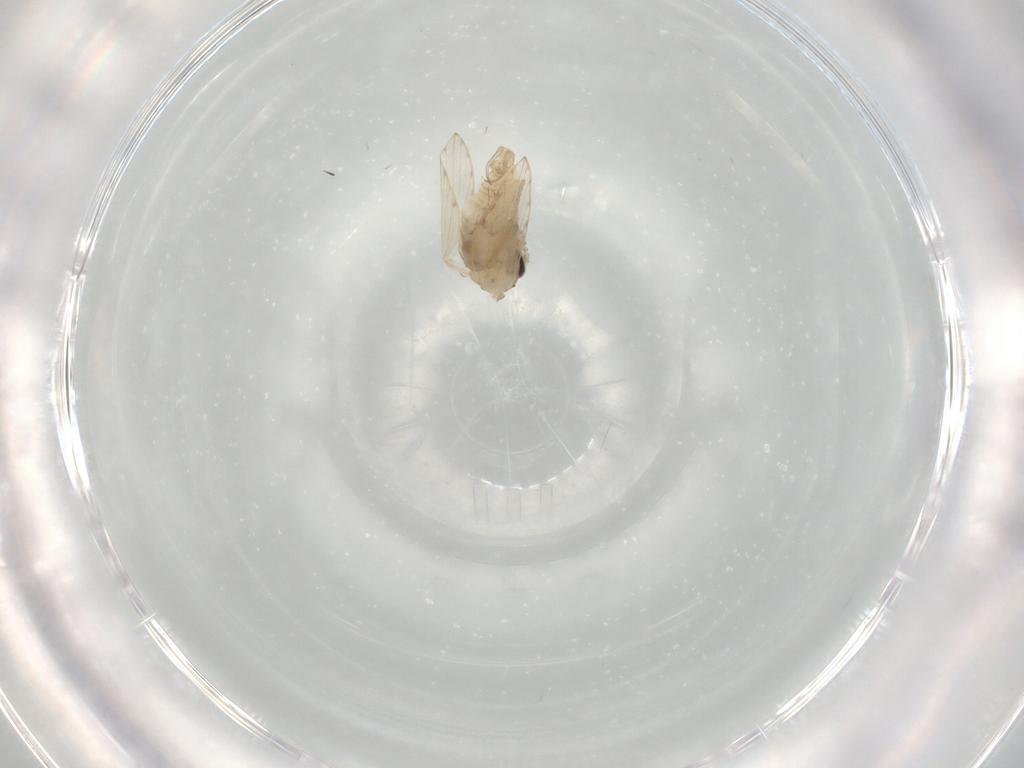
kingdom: Animalia
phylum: Arthropoda
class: Insecta
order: Diptera
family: Psychodidae
